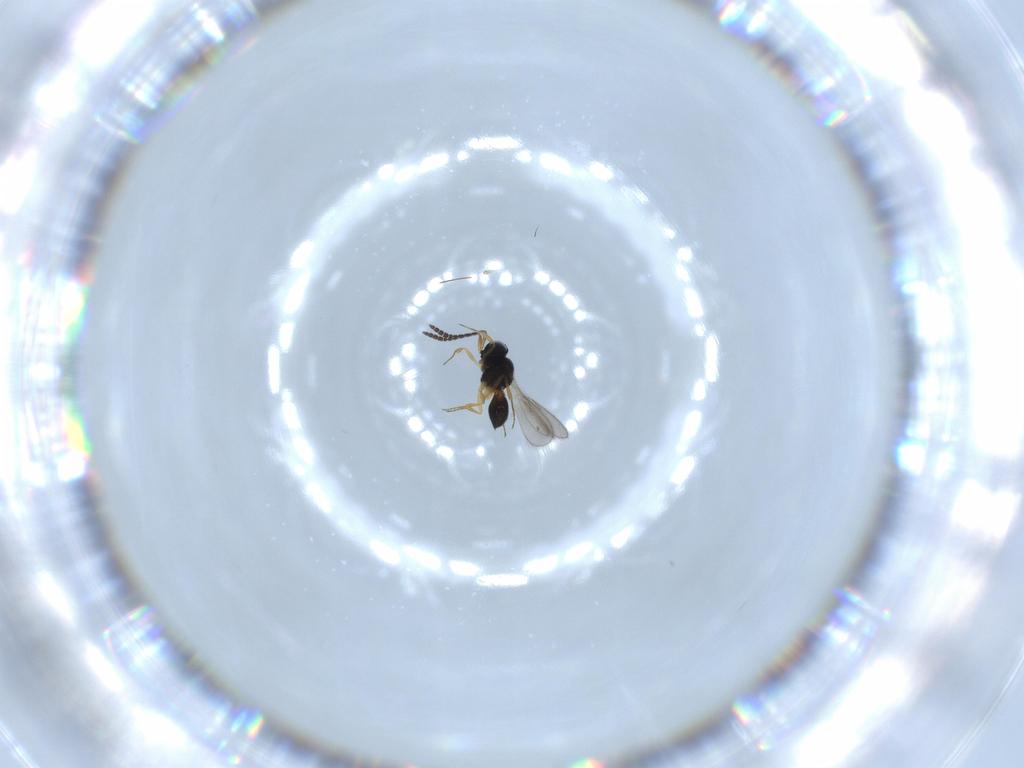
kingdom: Animalia
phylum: Arthropoda
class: Insecta
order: Hymenoptera
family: Scelionidae
